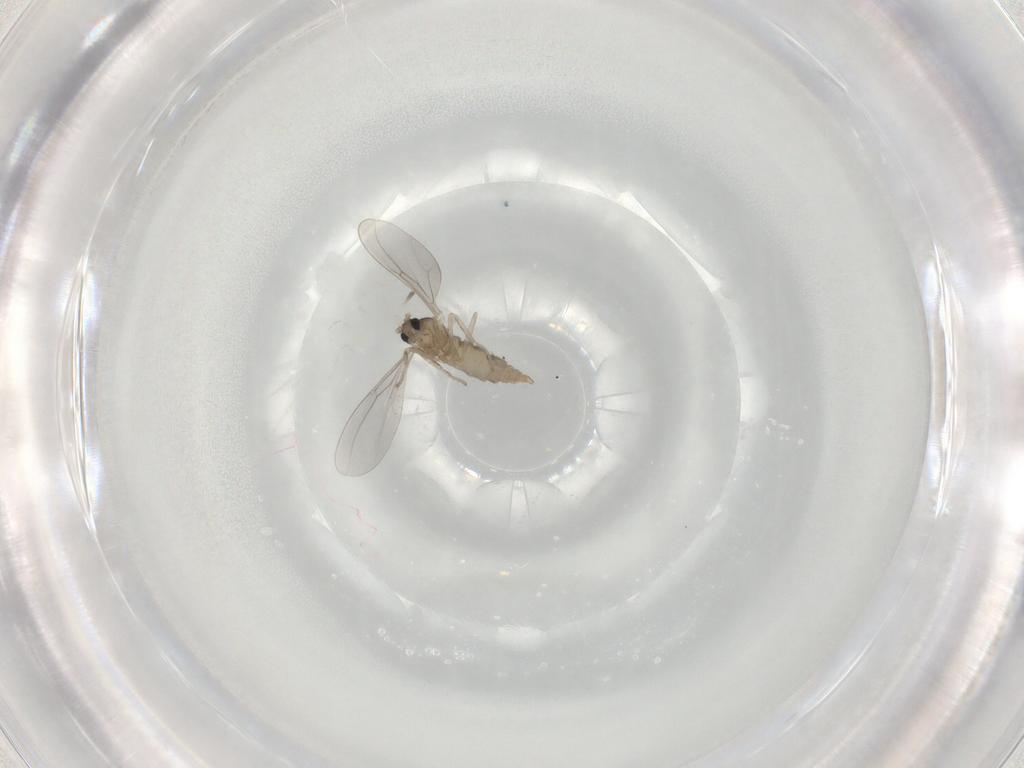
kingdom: Animalia
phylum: Arthropoda
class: Insecta
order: Diptera
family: Cecidomyiidae
